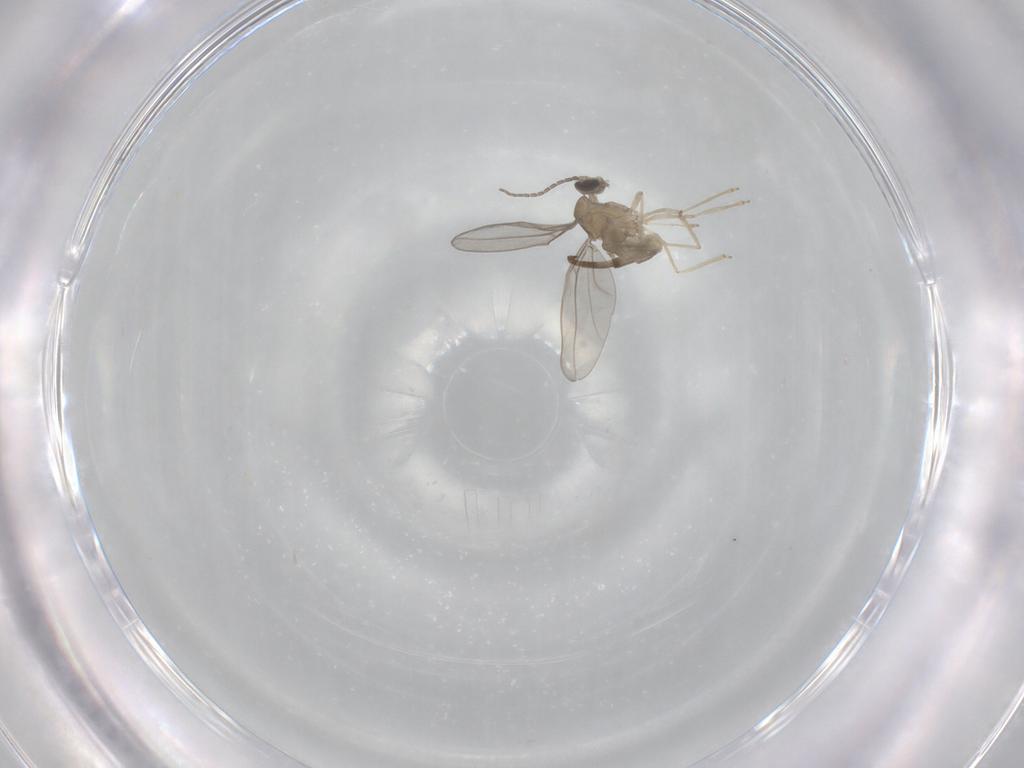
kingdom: Animalia
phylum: Arthropoda
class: Insecta
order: Diptera
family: Cecidomyiidae
